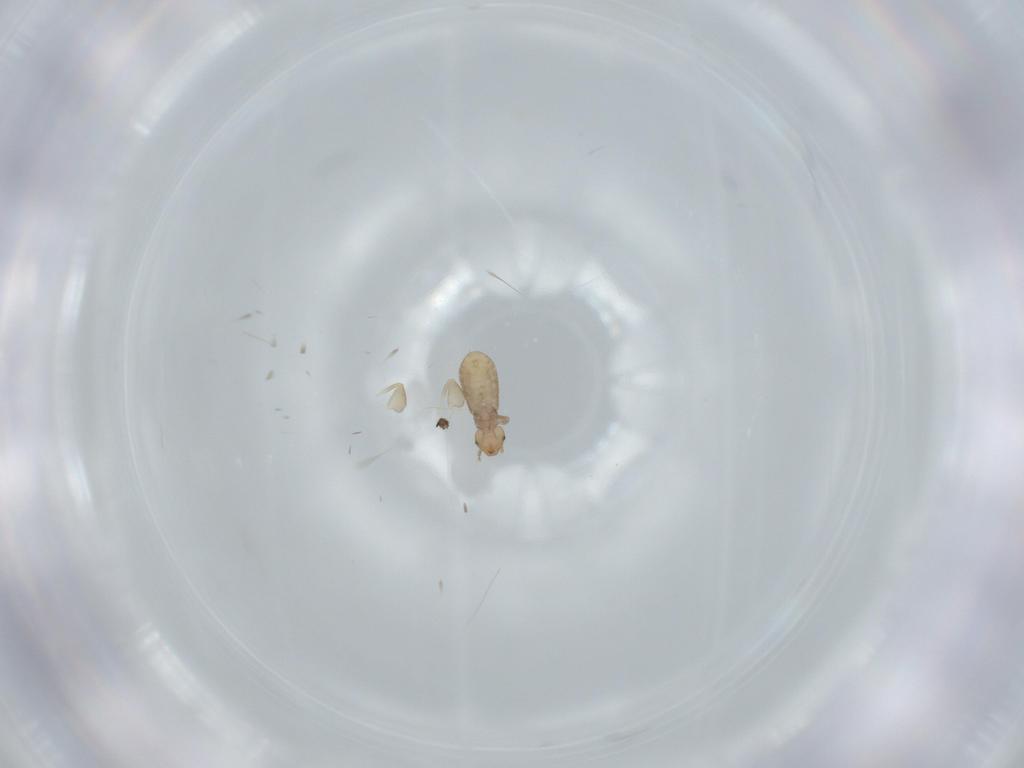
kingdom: Animalia
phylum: Arthropoda
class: Insecta
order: Psocodea
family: Liposcelididae
